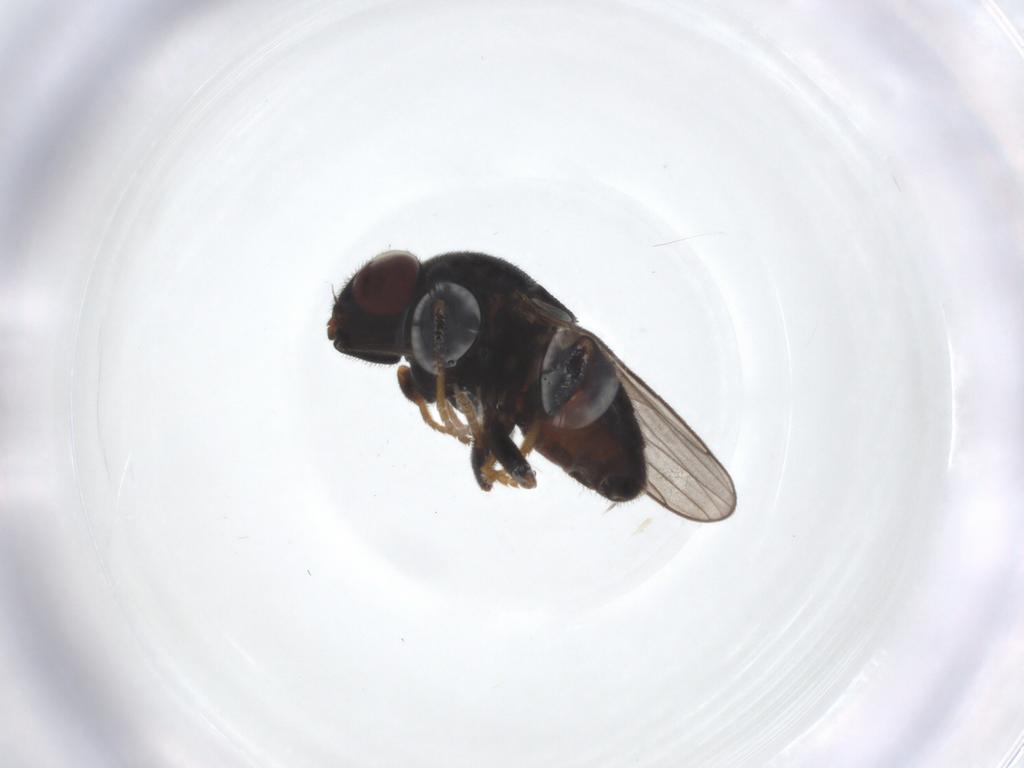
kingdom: Animalia
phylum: Arthropoda
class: Insecta
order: Diptera
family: Chloropidae
